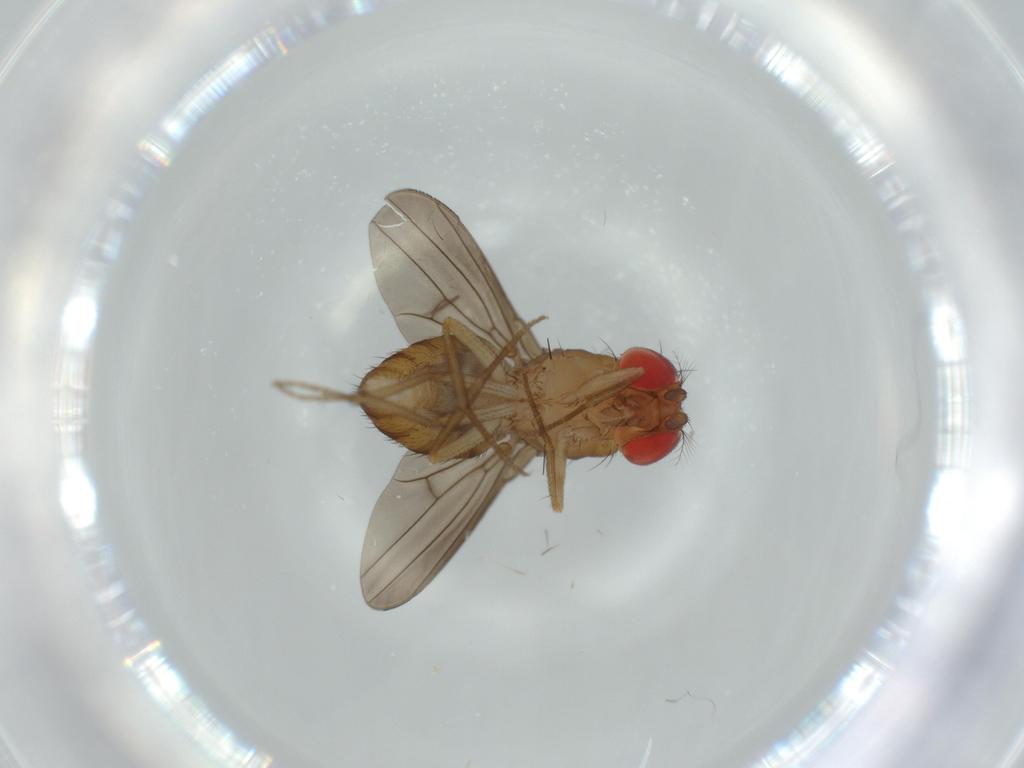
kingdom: Animalia
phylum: Arthropoda
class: Insecta
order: Diptera
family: Drosophilidae
